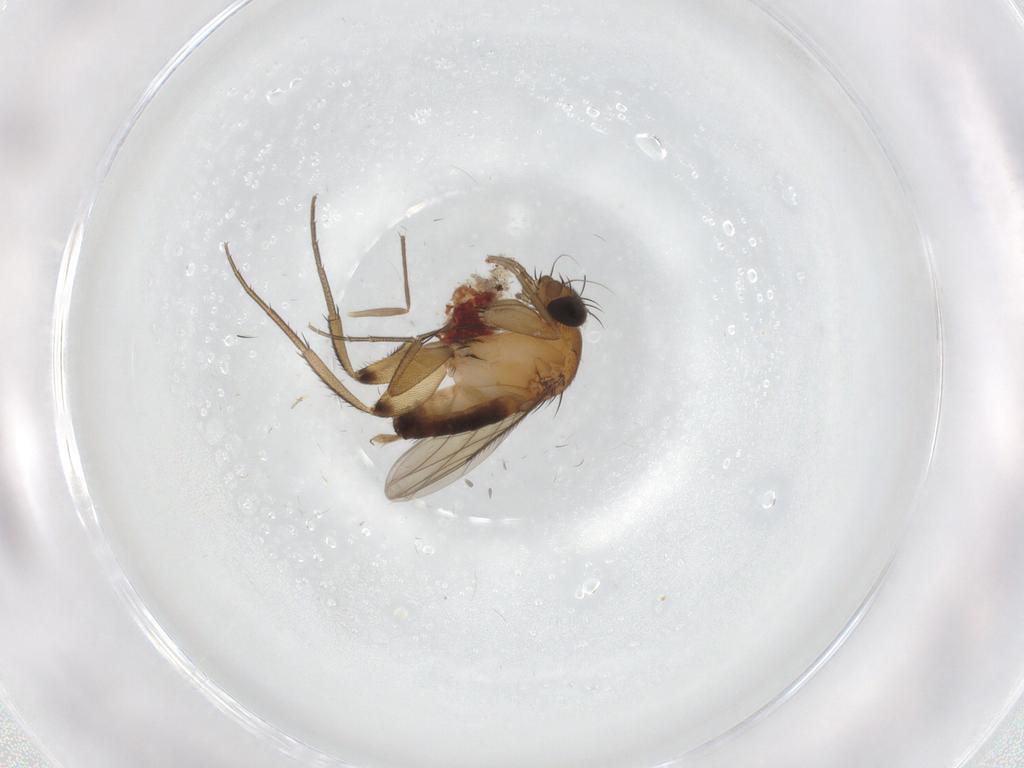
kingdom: Animalia
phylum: Arthropoda
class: Insecta
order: Diptera
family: Phoridae
